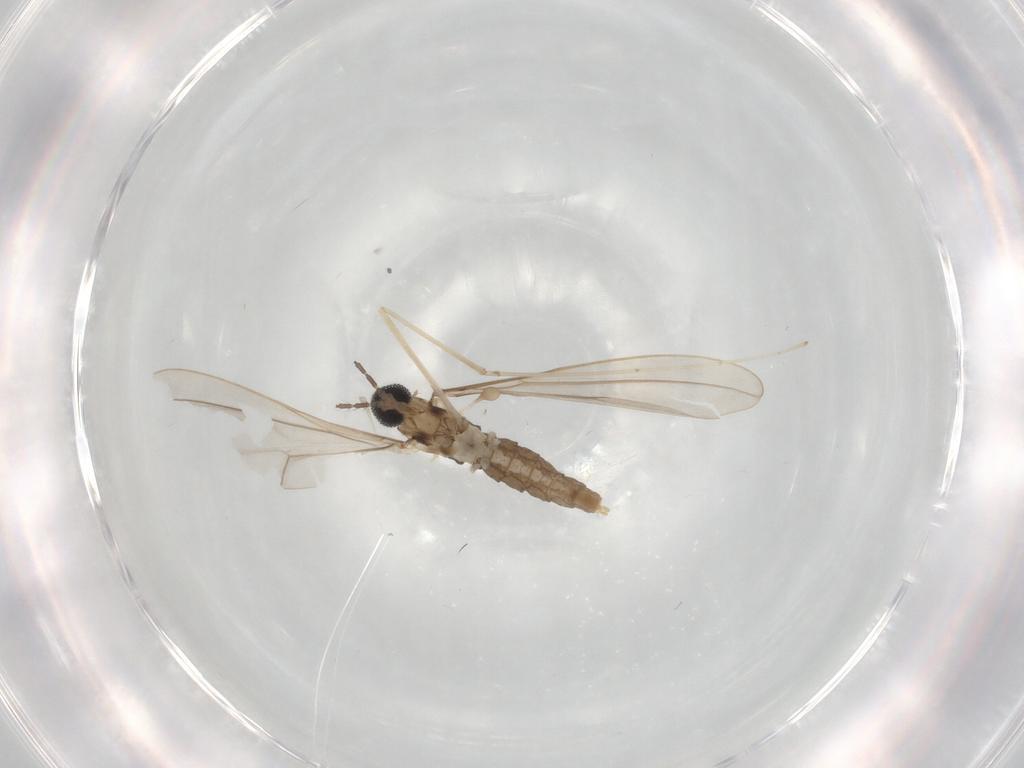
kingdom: Animalia
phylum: Arthropoda
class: Insecta
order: Diptera
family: Cecidomyiidae
